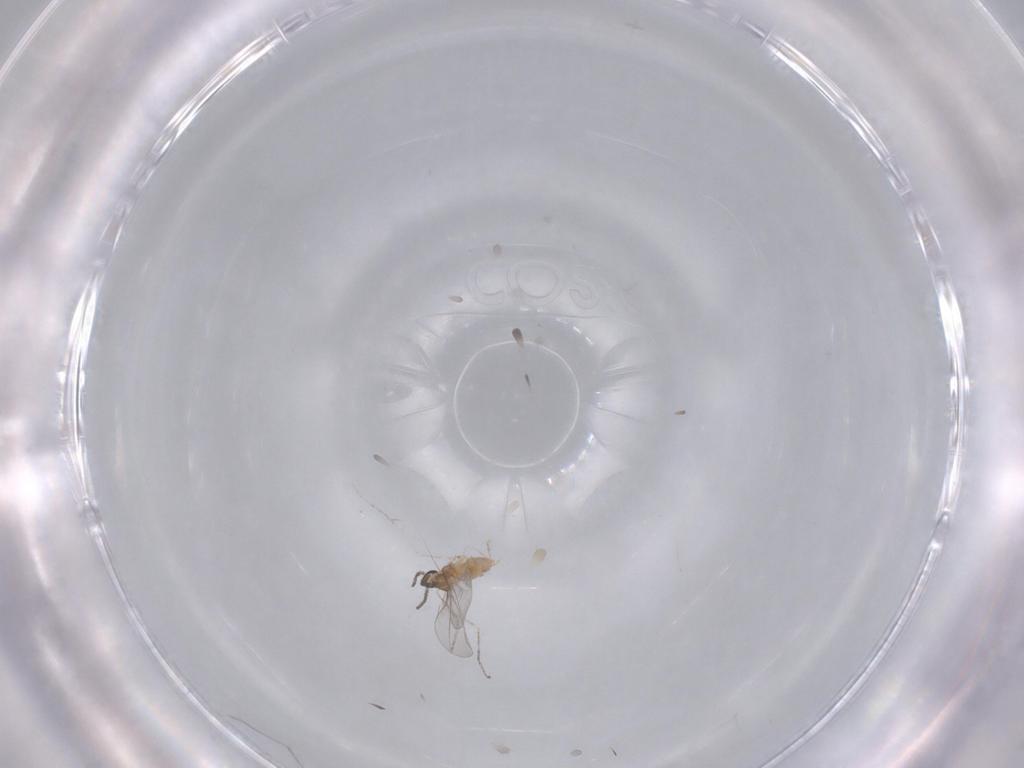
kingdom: Animalia
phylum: Arthropoda
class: Insecta
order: Diptera
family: Cecidomyiidae
